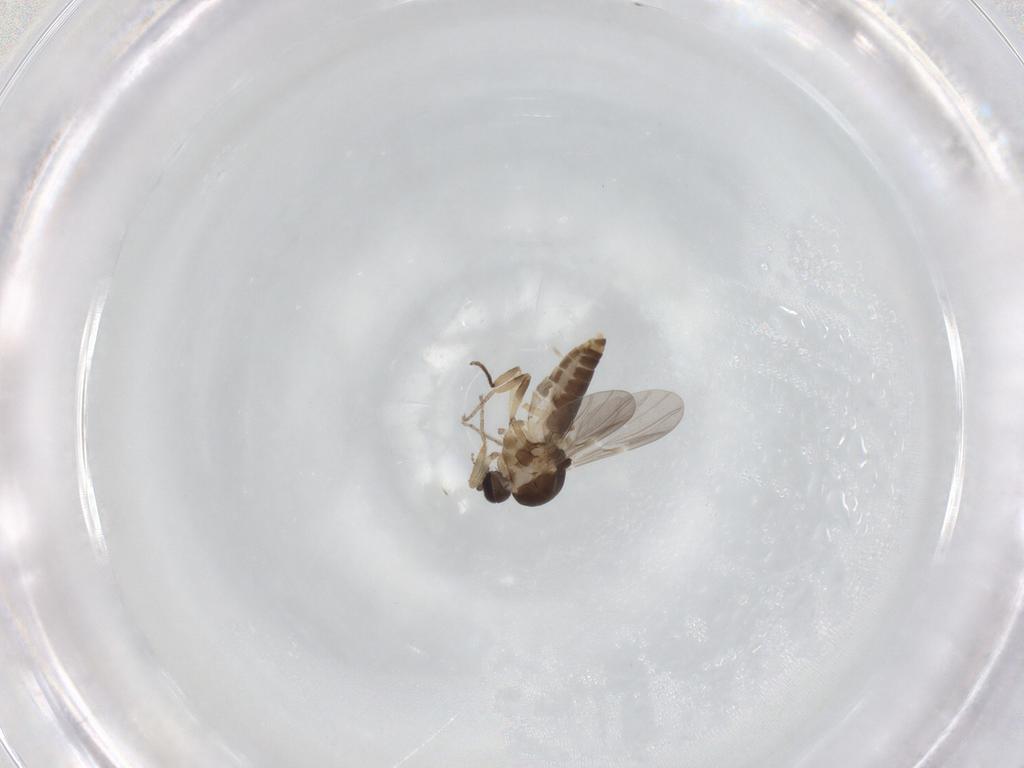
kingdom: Animalia
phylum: Arthropoda
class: Insecta
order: Diptera
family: Ceratopogonidae
